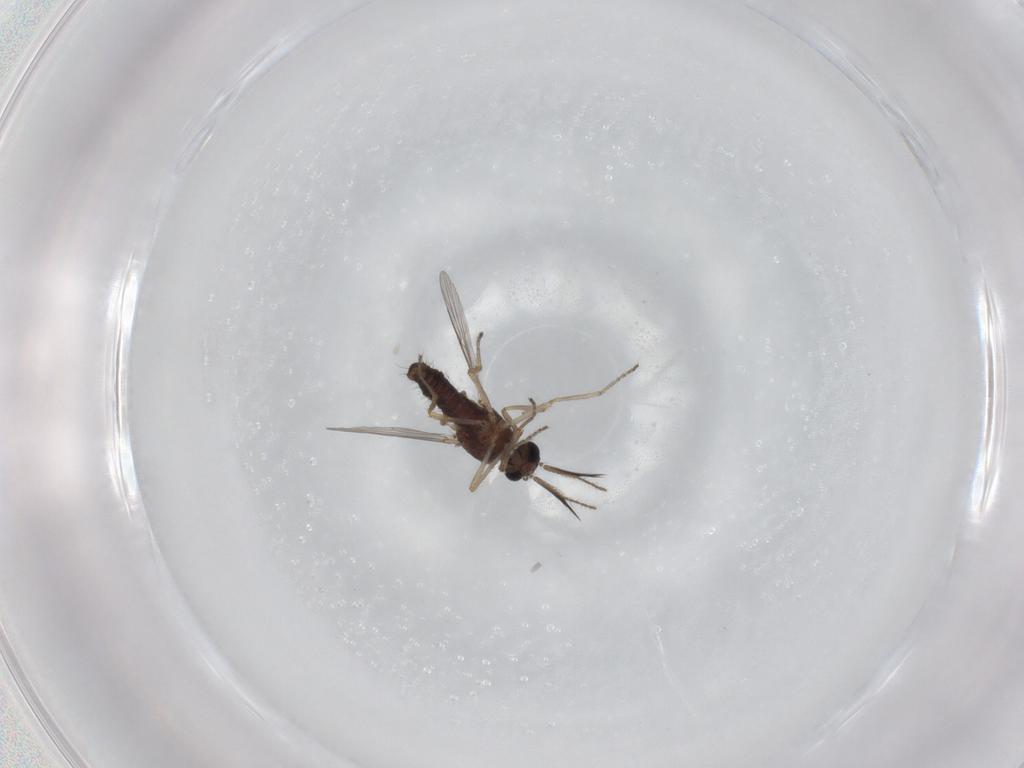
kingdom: Animalia
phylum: Arthropoda
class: Insecta
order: Diptera
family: Ceratopogonidae
